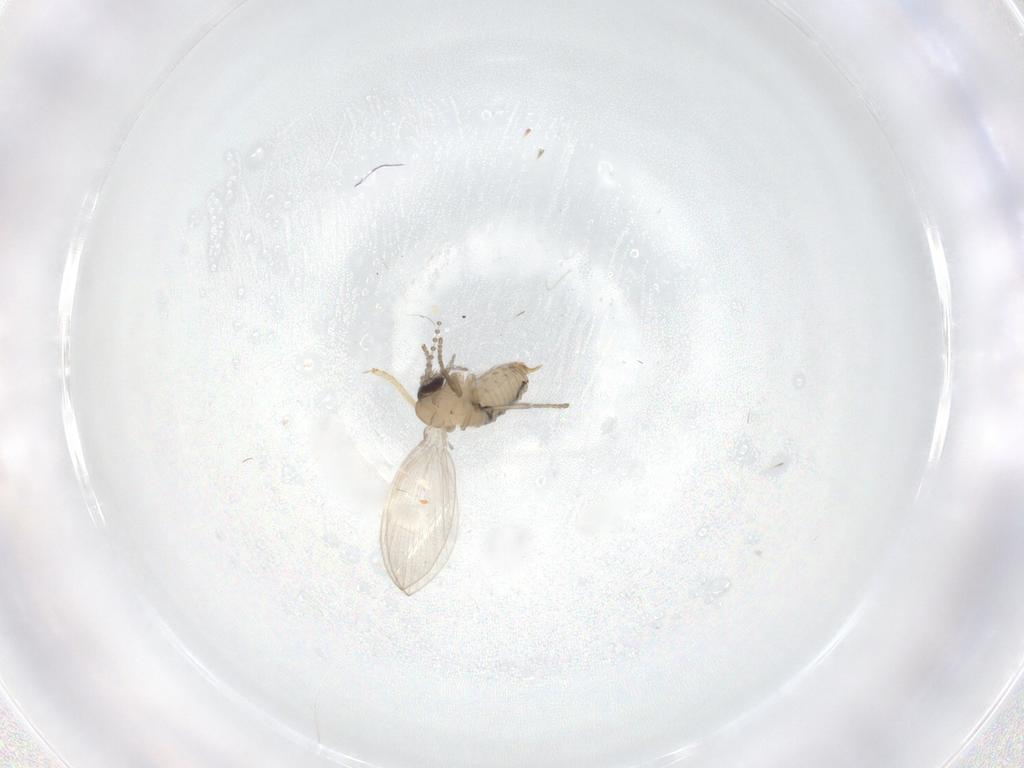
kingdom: Animalia
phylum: Arthropoda
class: Insecta
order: Diptera
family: Psychodidae
